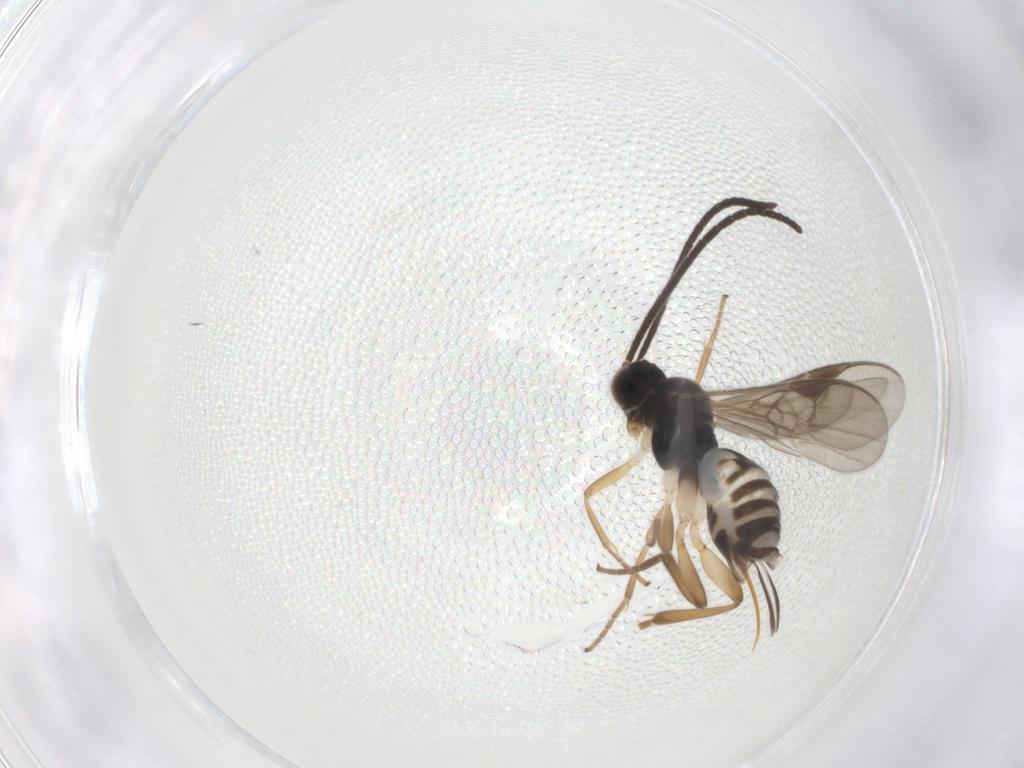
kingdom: Animalia
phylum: Arthropoda
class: Insecta
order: Hymenoptera
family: Braconidae
